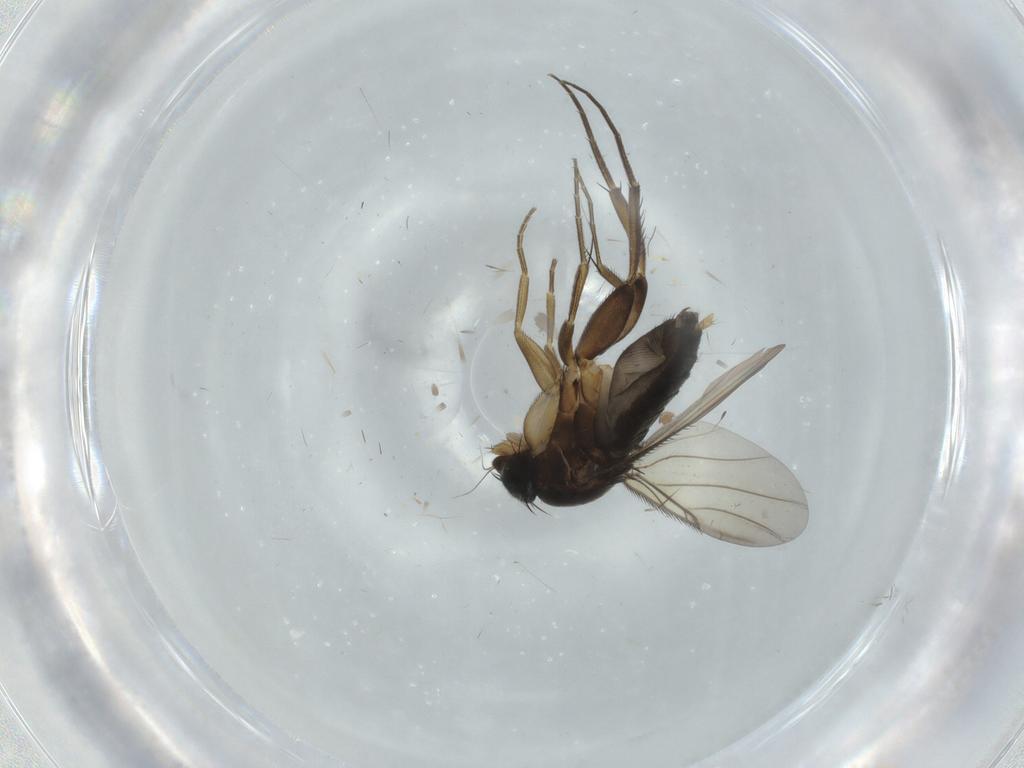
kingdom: Animalia
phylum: Arthropoda
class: Insecta
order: Diptera
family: Phoridae
